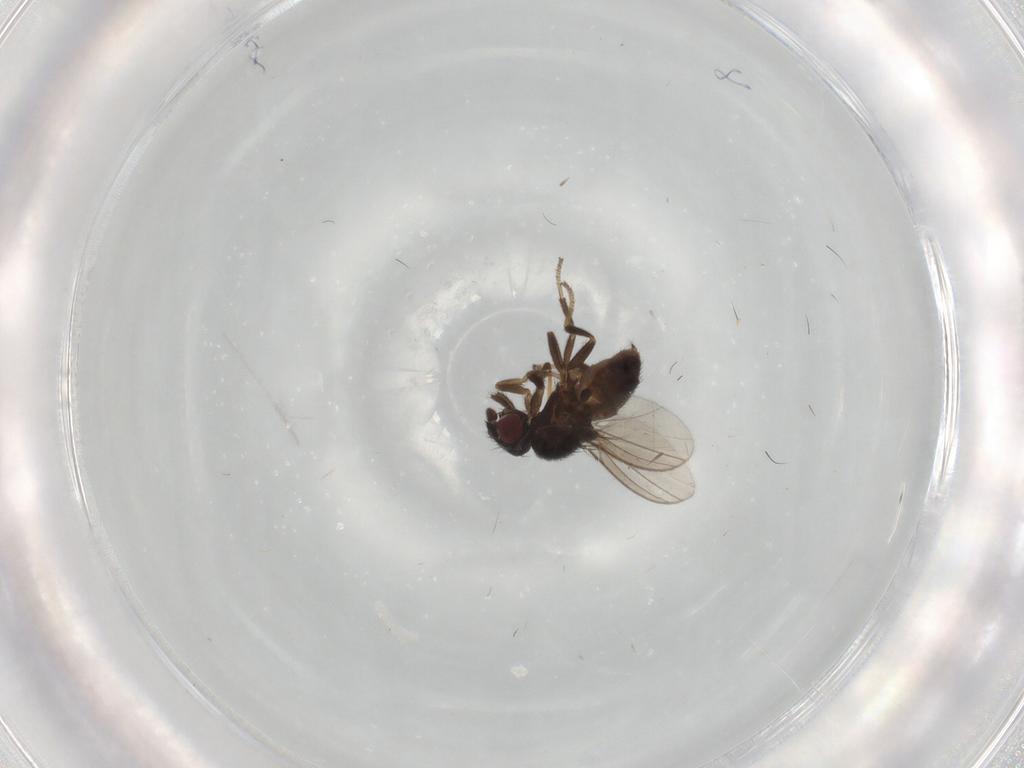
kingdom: Animalia
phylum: Arthropoda
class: Insecta
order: Diptera
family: Milichiidae
